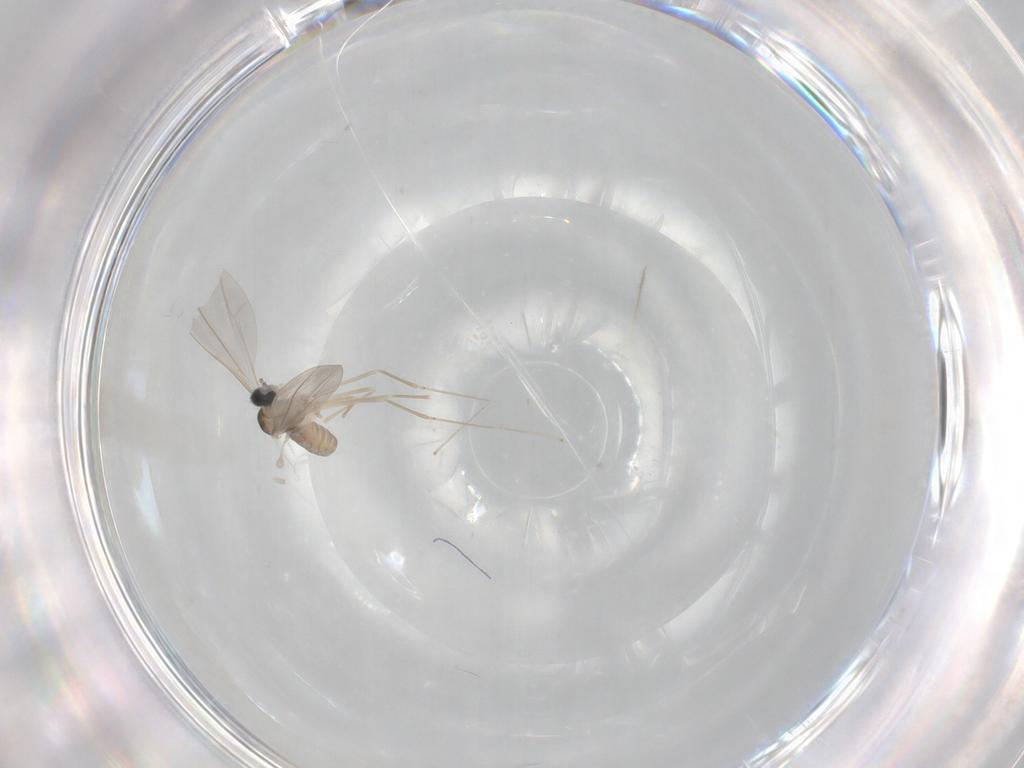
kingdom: Animalia
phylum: Arthropoda
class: Insecta
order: Diptera
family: Cecidomyiidae
